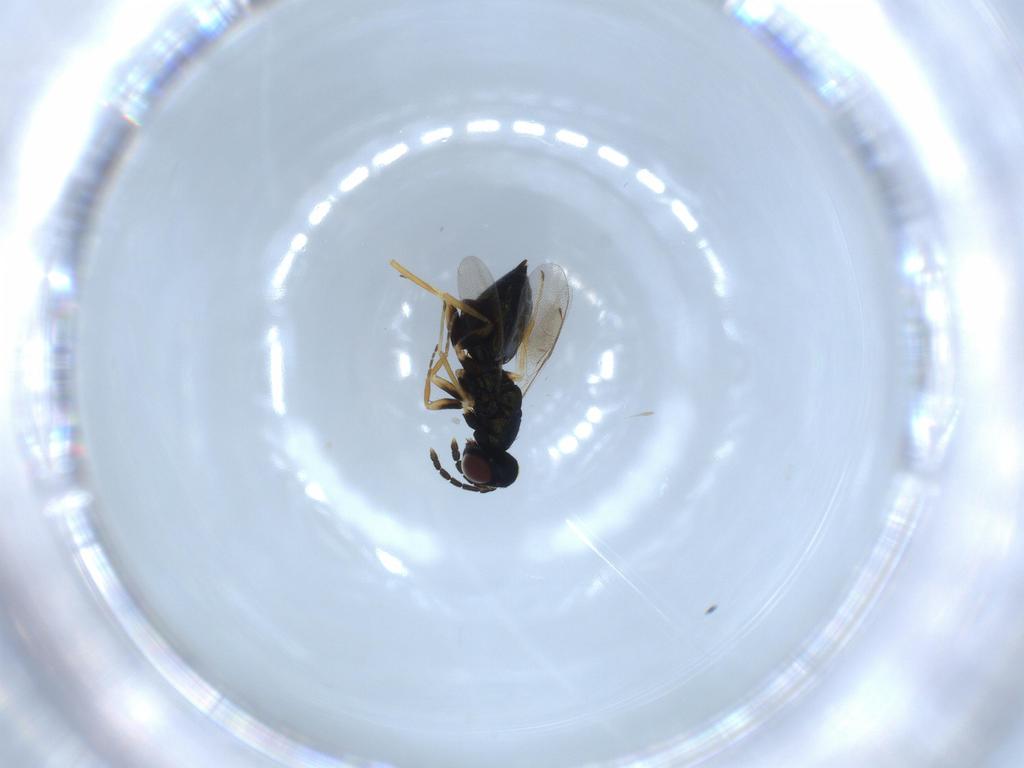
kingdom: Animalia
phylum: Arthropoda
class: Insecta
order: Hymenoptera
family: Eulophidae
